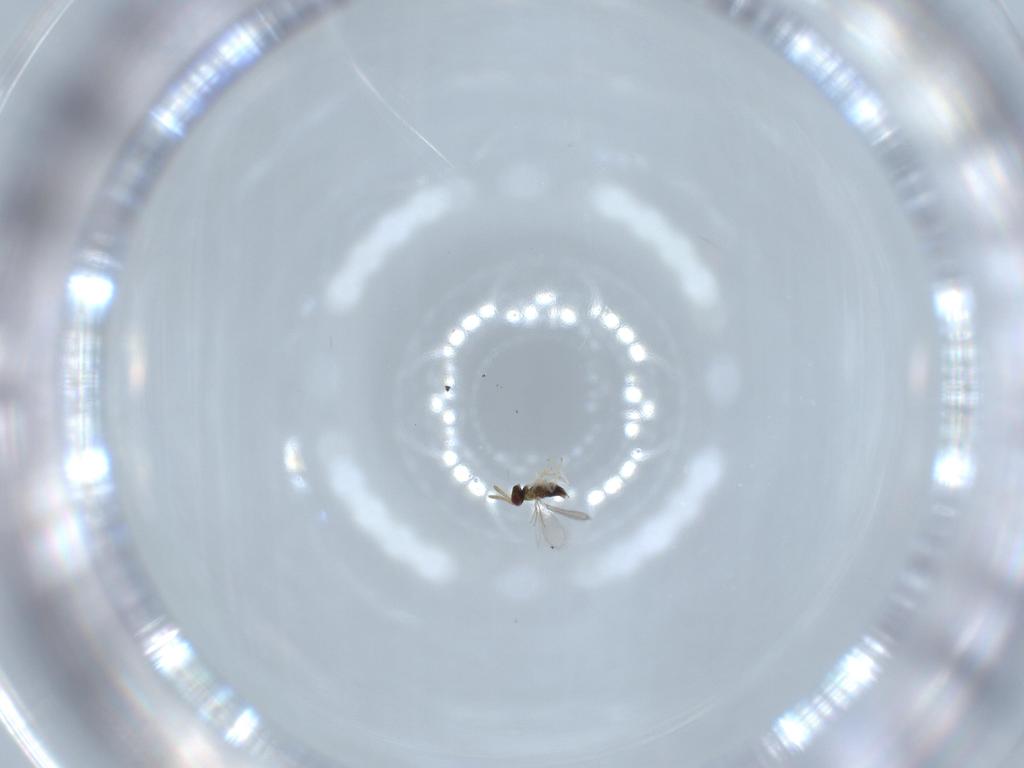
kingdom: Animalia
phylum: Arthropoda
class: Insecta
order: Hymenoptera
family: Aphelinidae
